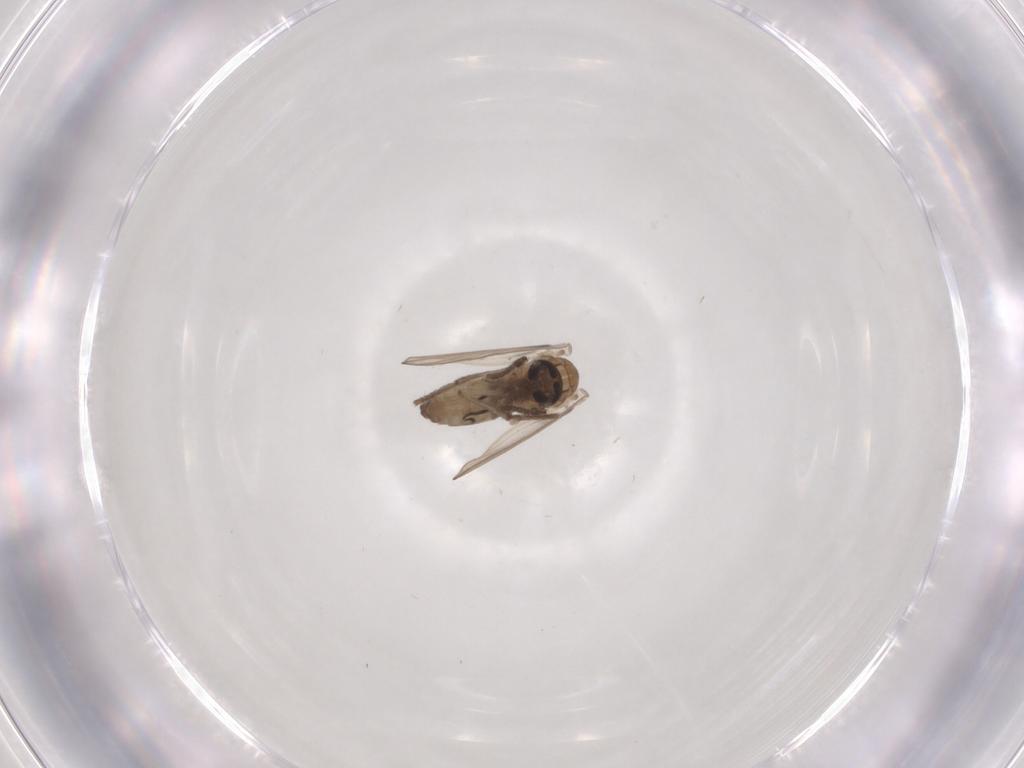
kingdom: Animalia
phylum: Arthropoda
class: Insecta
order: Diptera
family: Psychodidae
